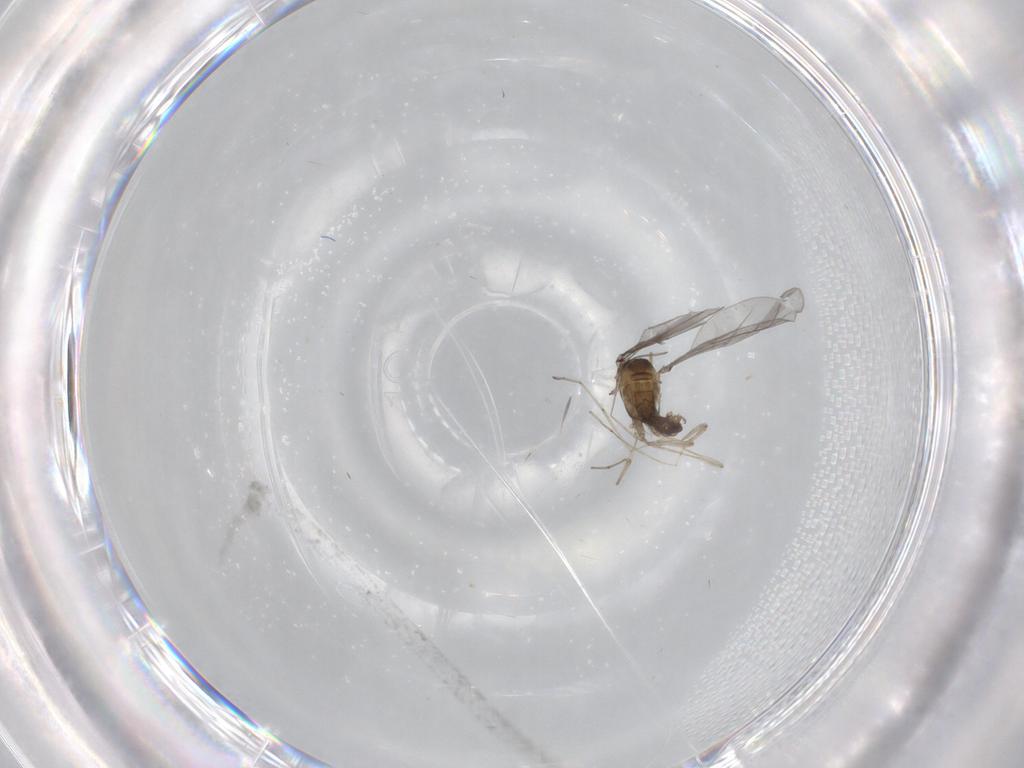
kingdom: Animalia
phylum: Arthropoda
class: Insecta
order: Diptera
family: Cecidomyiidae
